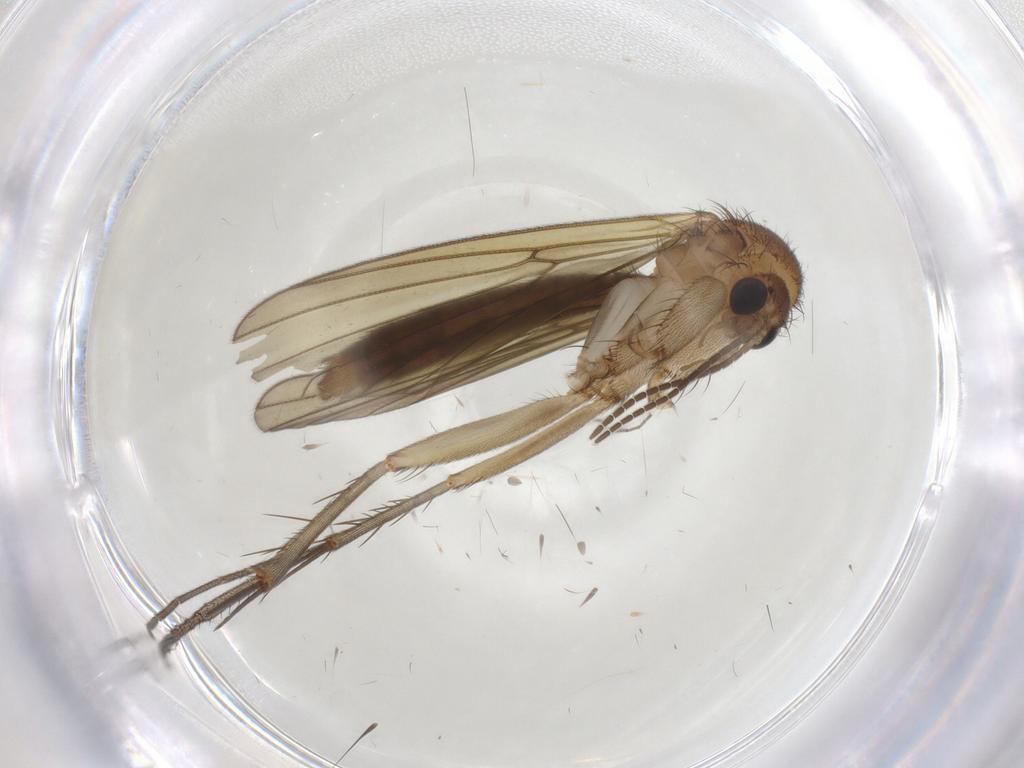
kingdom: Animalia
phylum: Arthropoda
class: Insecta
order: Diptera
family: Mycetophilidae
